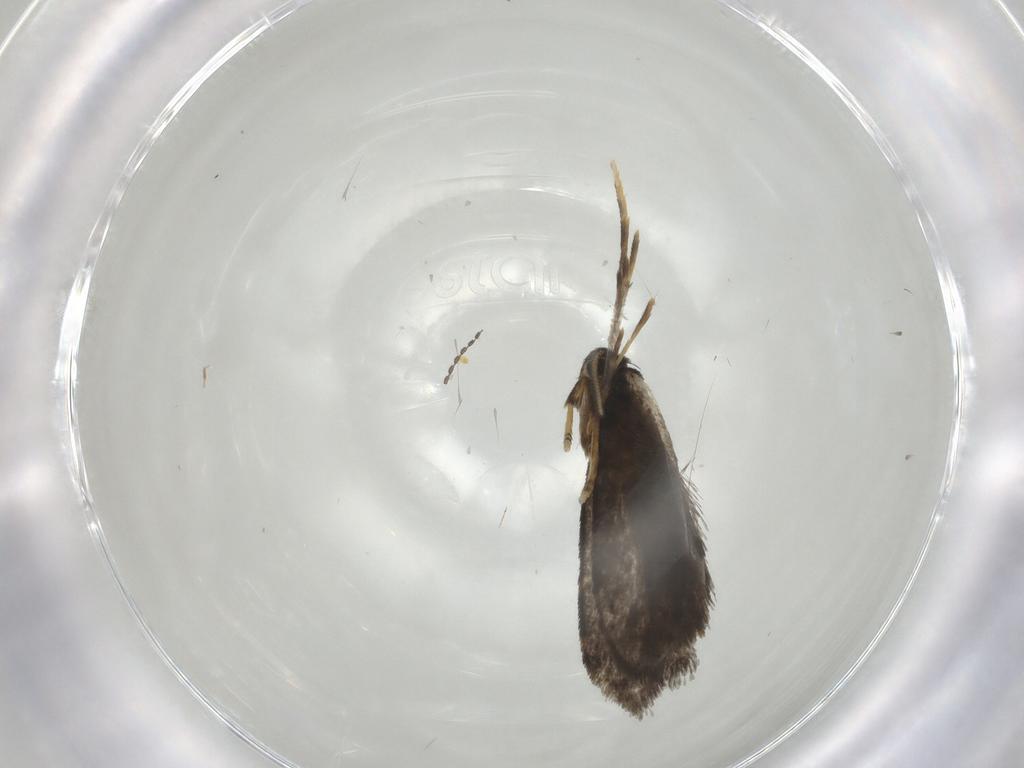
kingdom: Animalia
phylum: Arthropoda
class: Insecta
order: Lepidoptera
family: Psychidae
